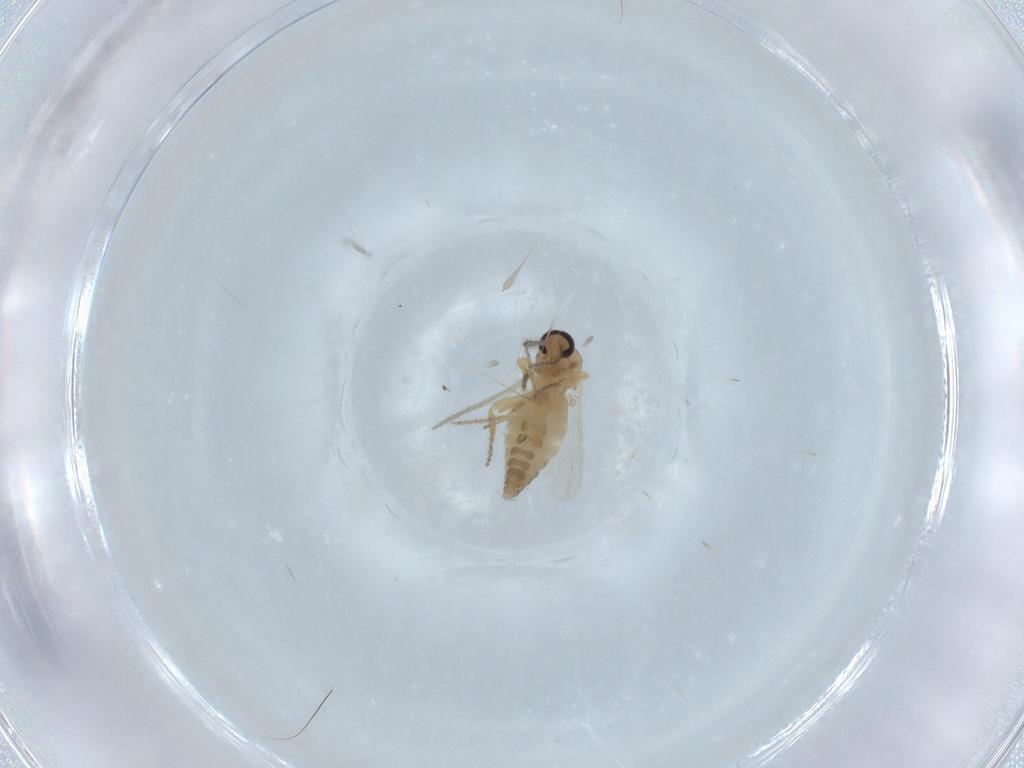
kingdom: Animalia
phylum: Arthropoda
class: Insecta
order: Diptera
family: Ceratopogonidae
